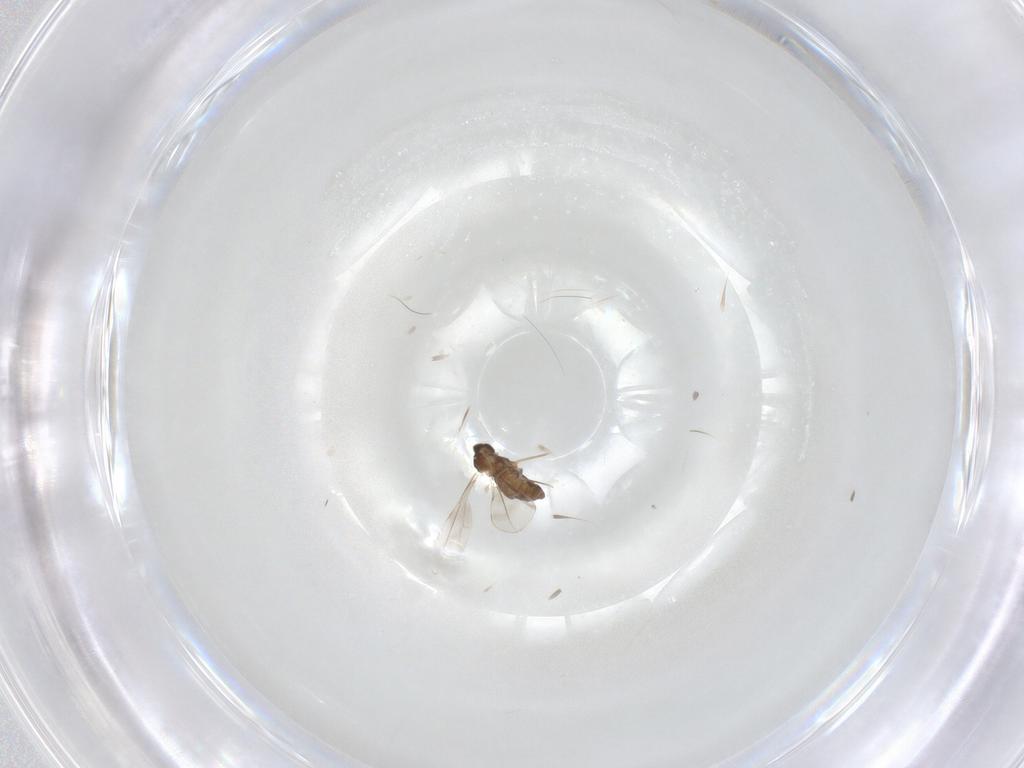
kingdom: Animalia
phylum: Arthropoda
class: Insecta
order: Diptera
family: Cecidomyiidae
